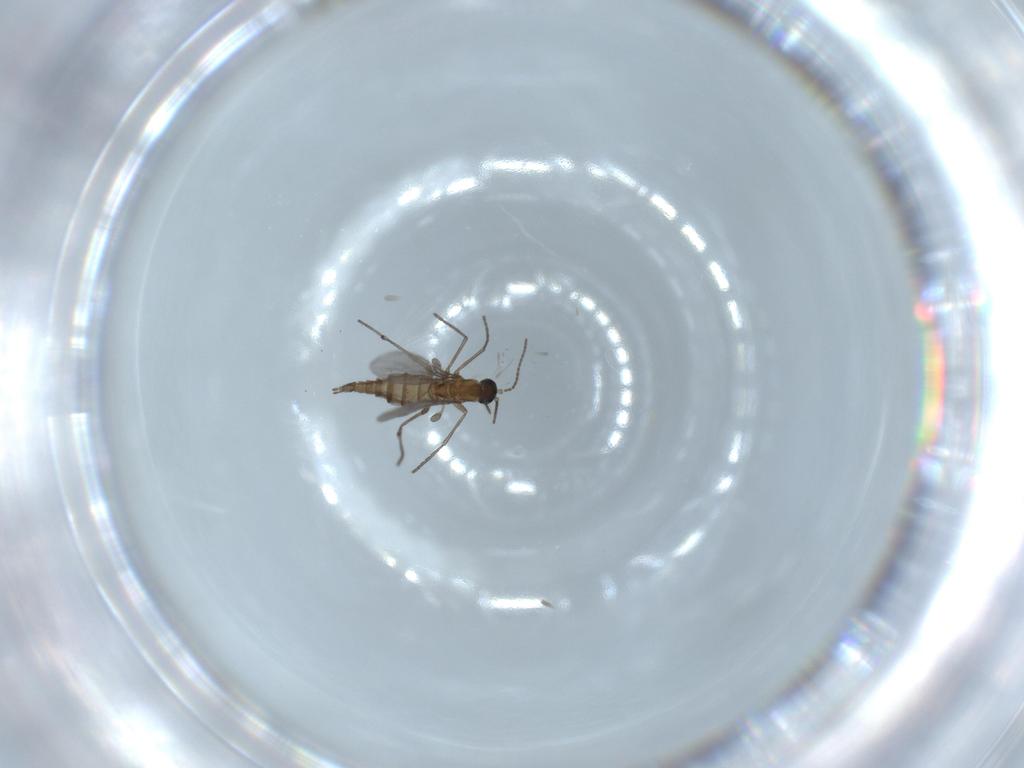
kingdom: Animalia
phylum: Arthropoda
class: Insecta
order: Diptera
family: Sciaridae
